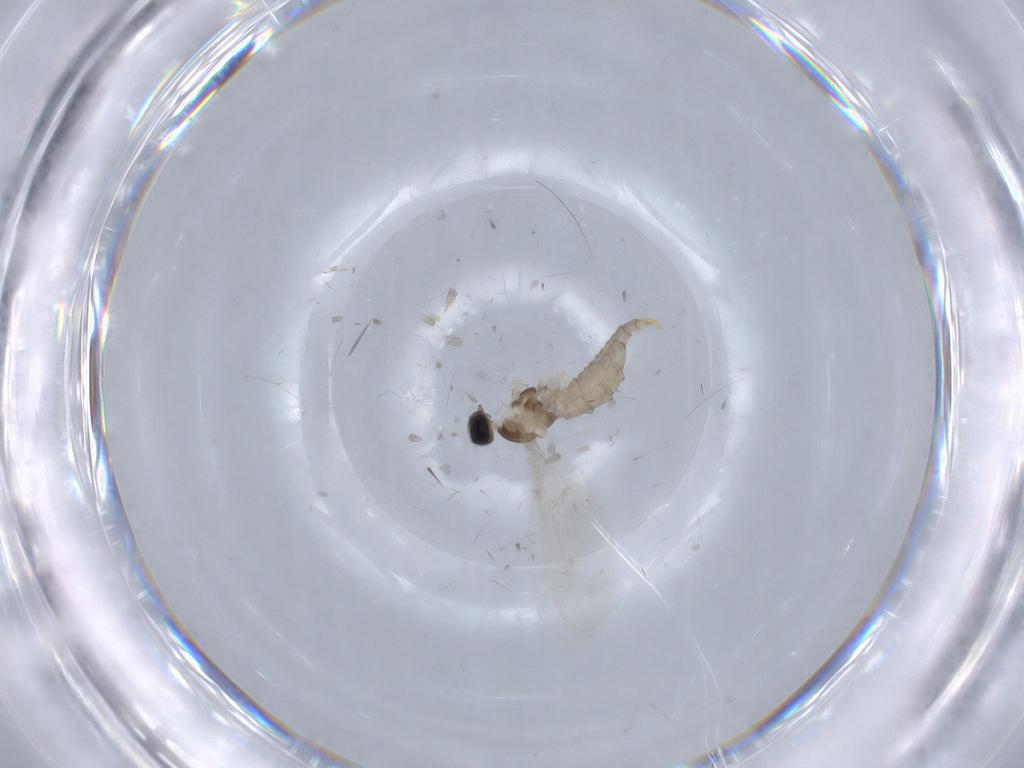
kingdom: Animalia
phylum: Arthropoda
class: Insecta
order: Diptera
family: Cecidomyiidae
